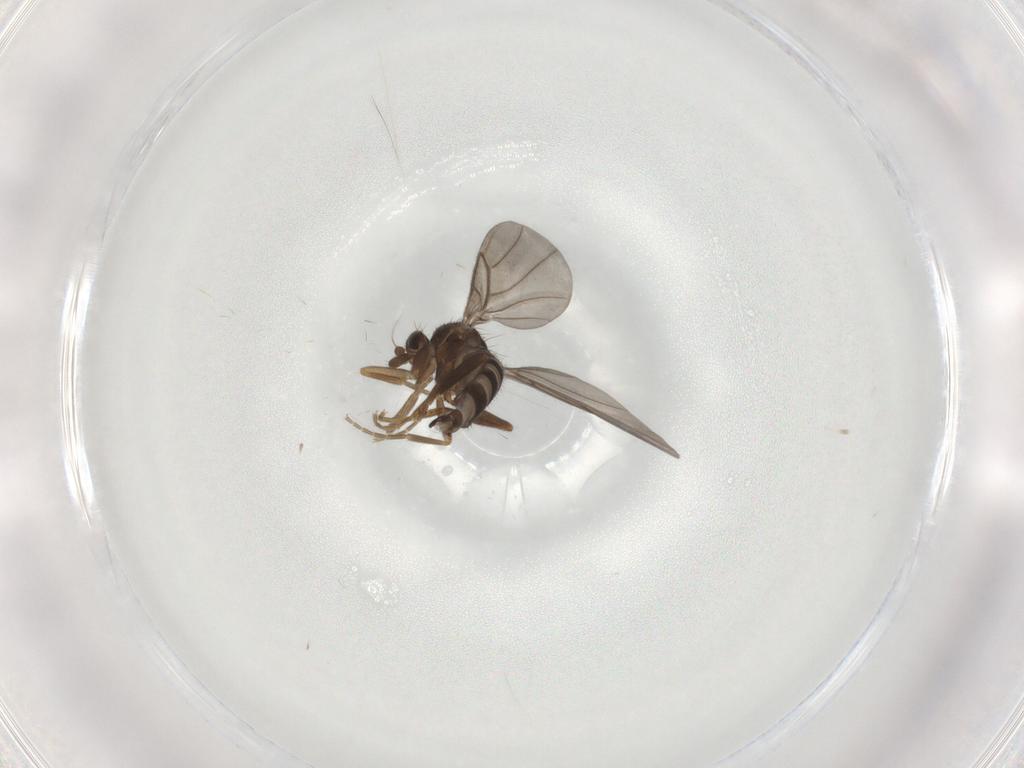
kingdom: Animalia
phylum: Arthropoda
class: Insecta
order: Diptera
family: Phoridae
